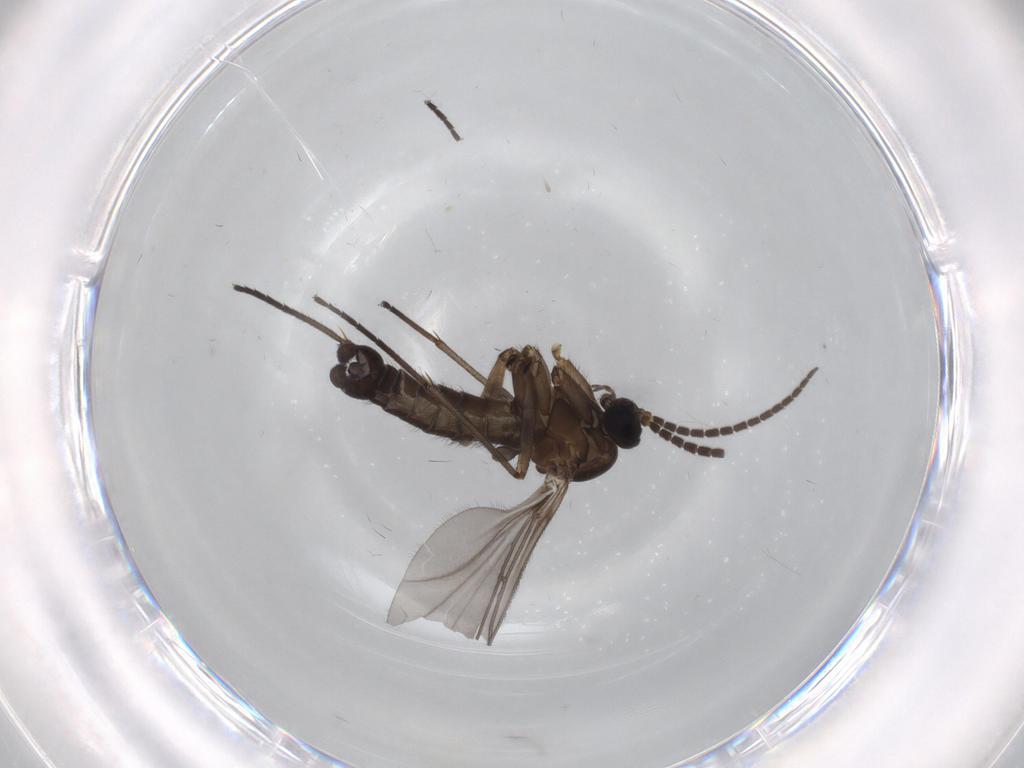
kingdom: Animalia
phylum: Arthropoda
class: Insecta
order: Diptera
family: Sciaridae
